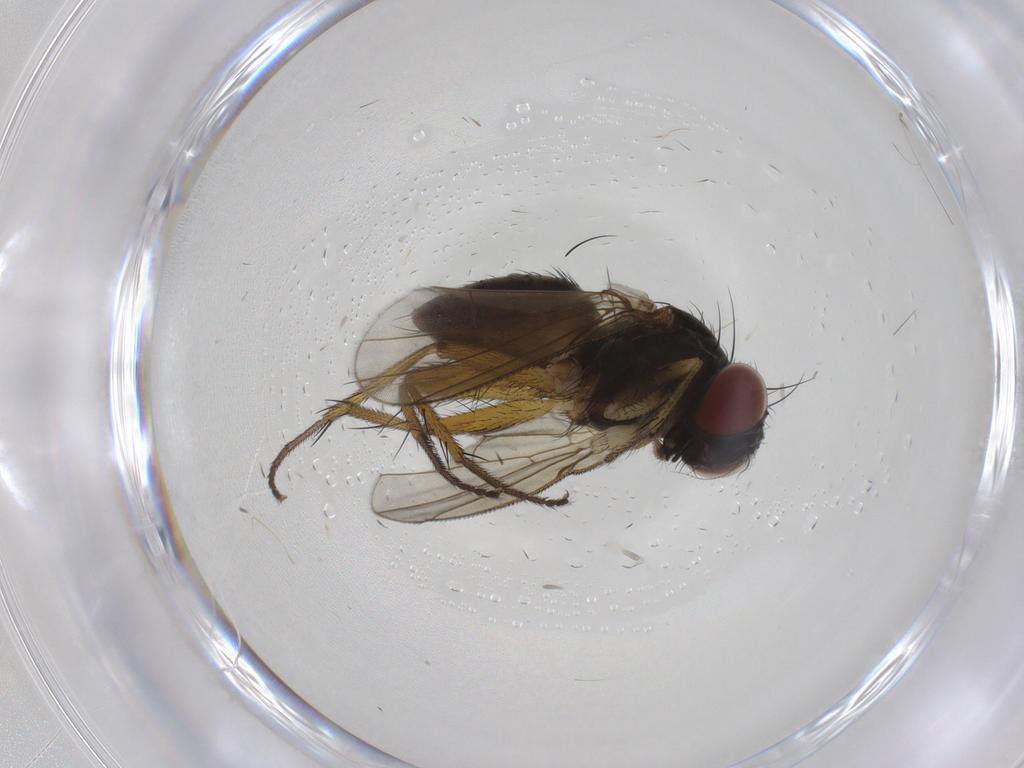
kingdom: Animalia
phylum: Arthropoda
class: Insecta
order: Diptera
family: Muscidae
